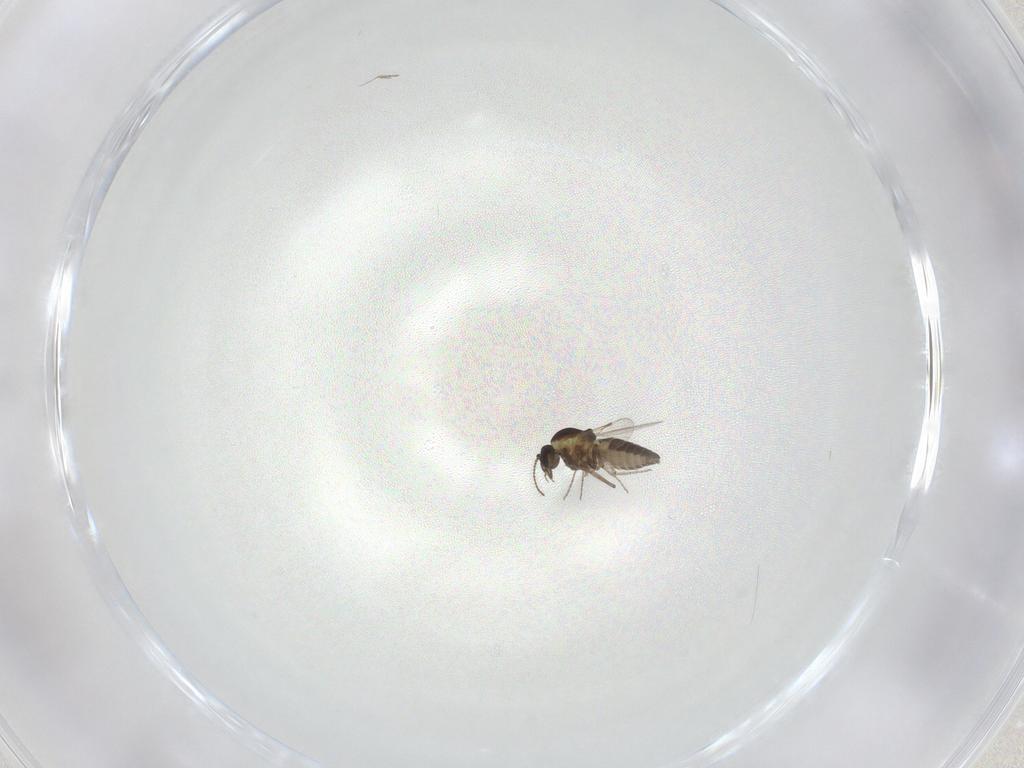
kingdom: Animalia
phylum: Arthropoda
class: Insecta
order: Diptera
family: Ceratopogonidae
